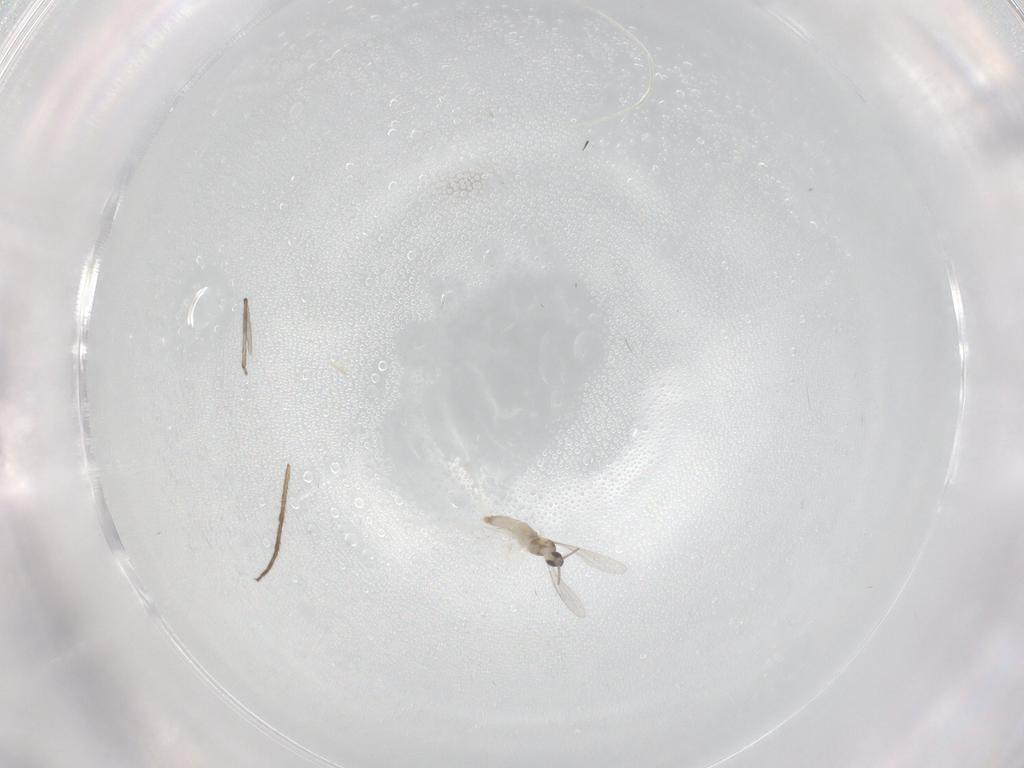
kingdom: Animalia
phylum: Arthropoda
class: Insecta
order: Diptera
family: Cecidomyiidae
